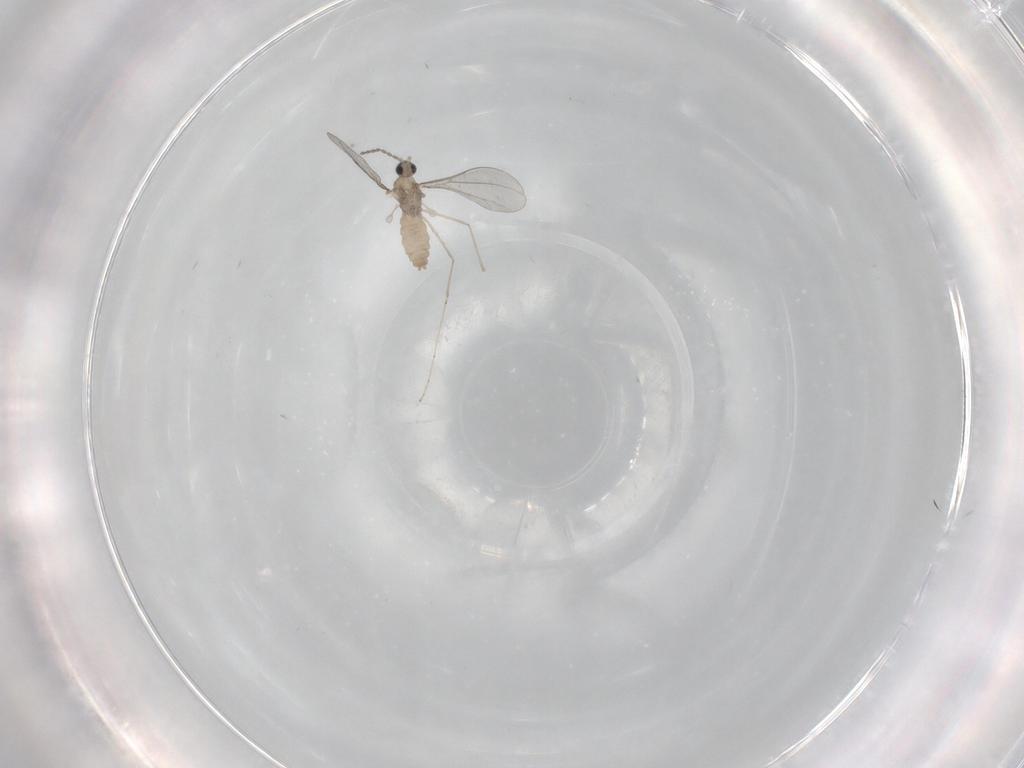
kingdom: Animalia
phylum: Arthropoda
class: Insecta
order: Diptera
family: Cecidomyiidae
